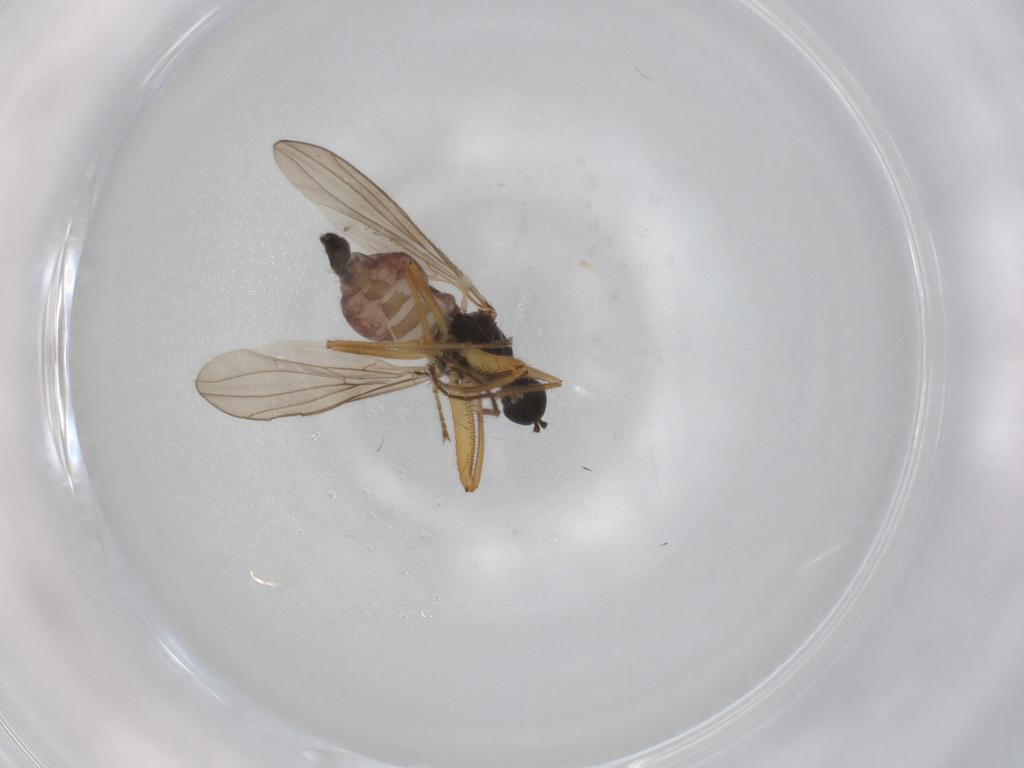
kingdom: Animalia
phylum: Arthropoda
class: Insecta
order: Diptera
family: Hybotidae
